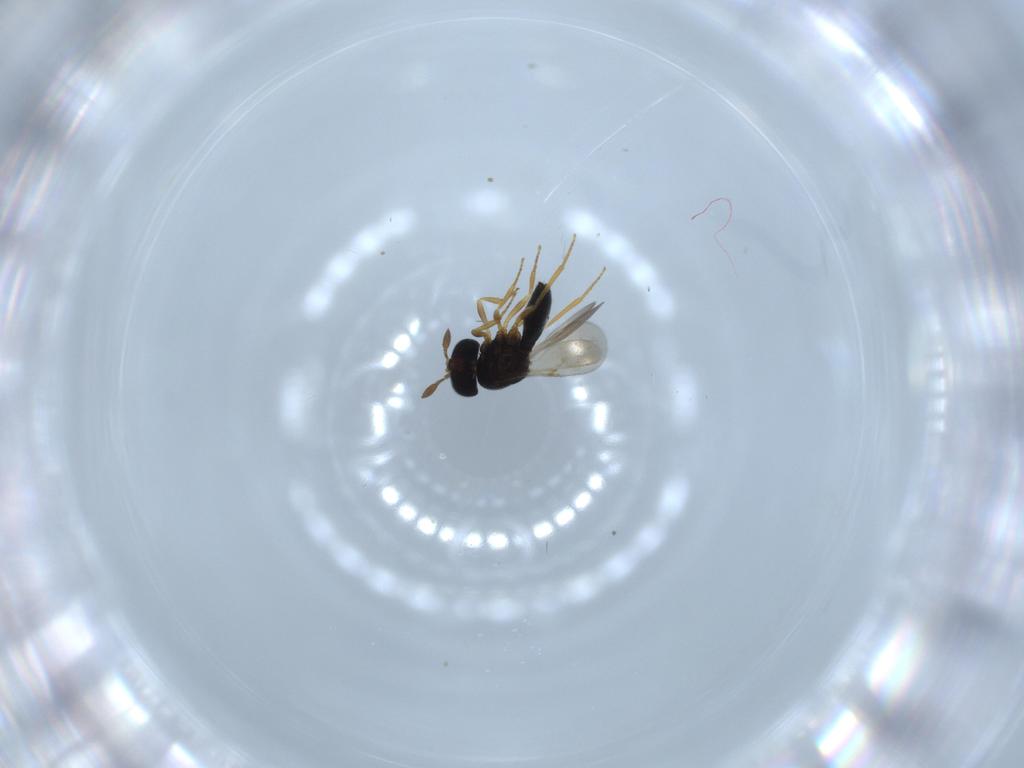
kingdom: Animalia
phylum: Arthropoda
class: Insecta
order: Hymenoptera
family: Scelionidae
